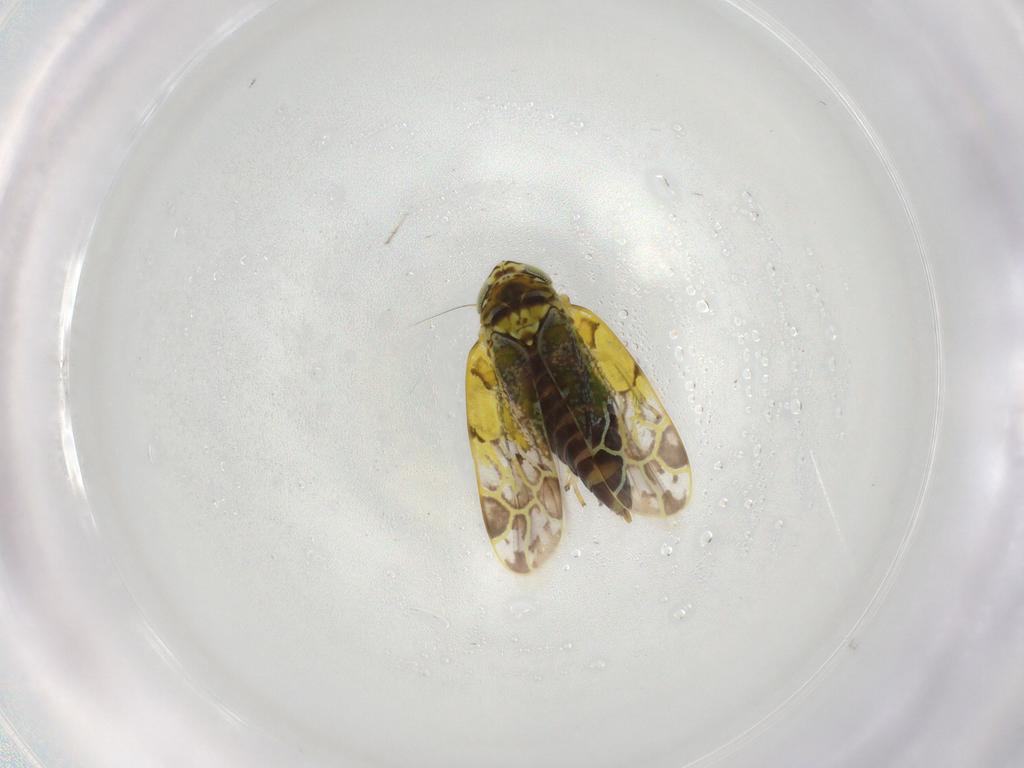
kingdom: Animalia
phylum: Arthropoda
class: Insecta
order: Hemiptera
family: Cicadellidae
